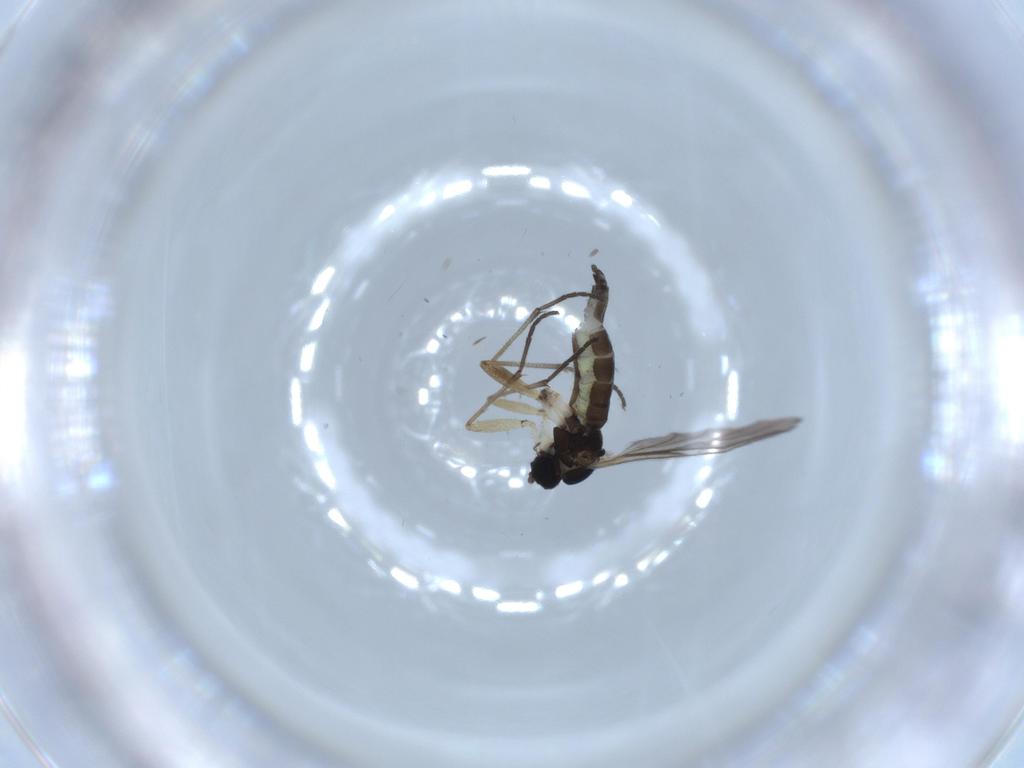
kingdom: Animalia
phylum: Arthropoda
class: Insecta
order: Diptera
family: Sciaridae
